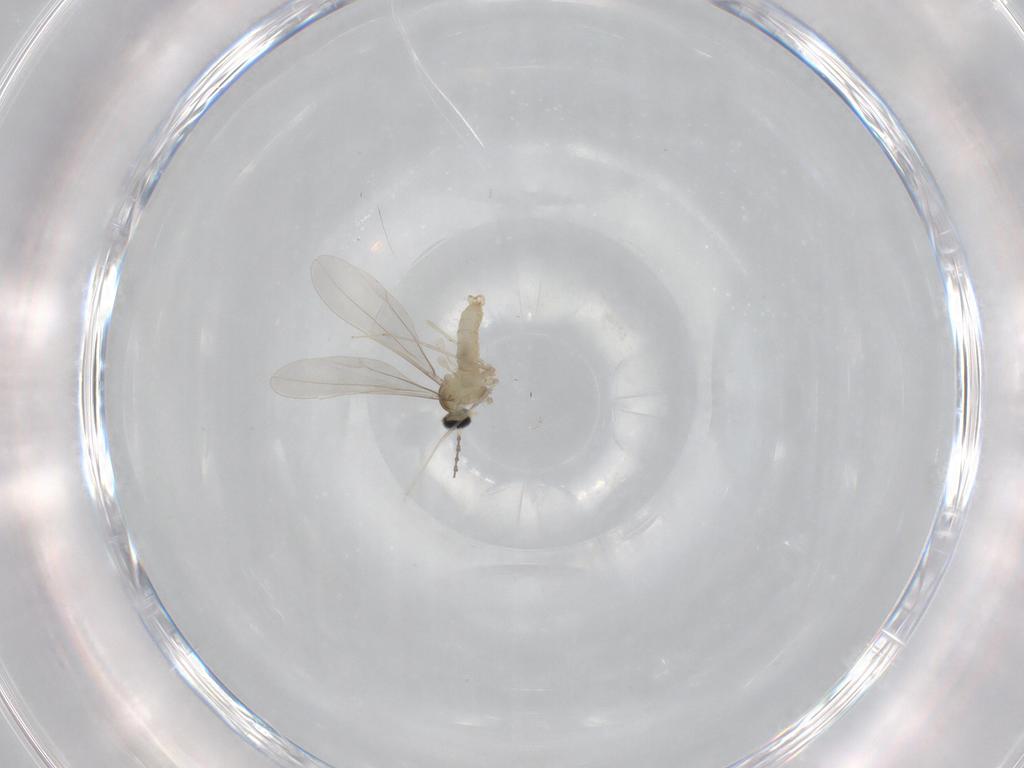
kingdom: Animalia
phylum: Arthropoda
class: Insecta
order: Diptera
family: Cecidomyiidae
